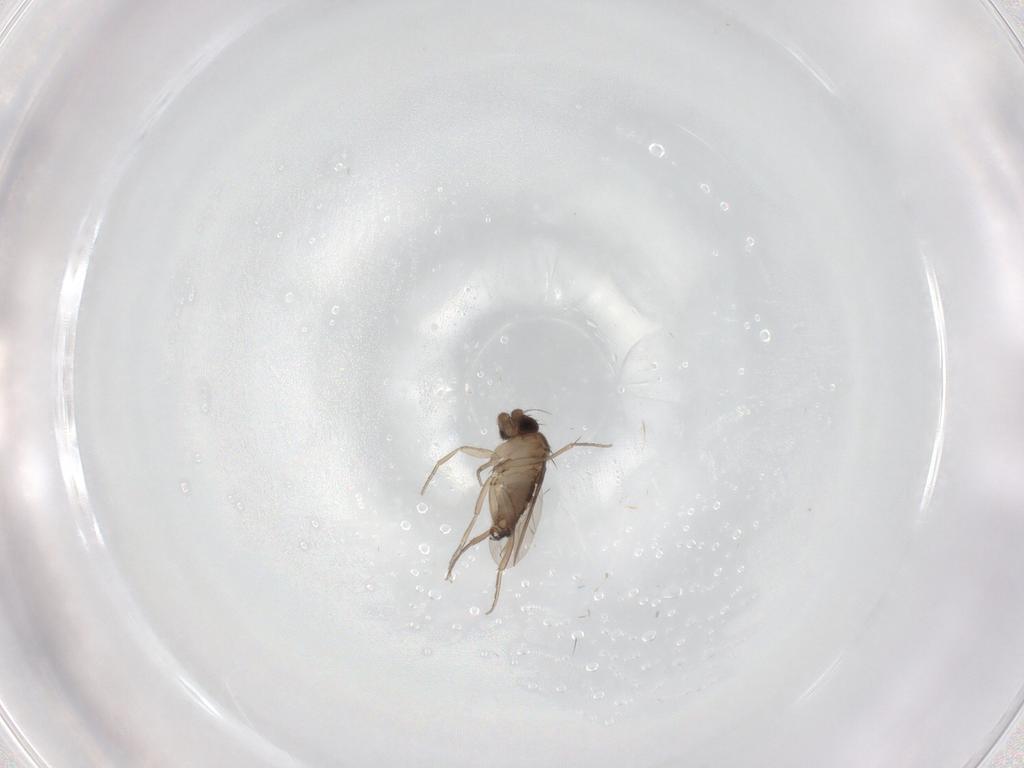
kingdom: Animalia
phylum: Arthropoda
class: Insecta
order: Diptera
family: Phoridae
